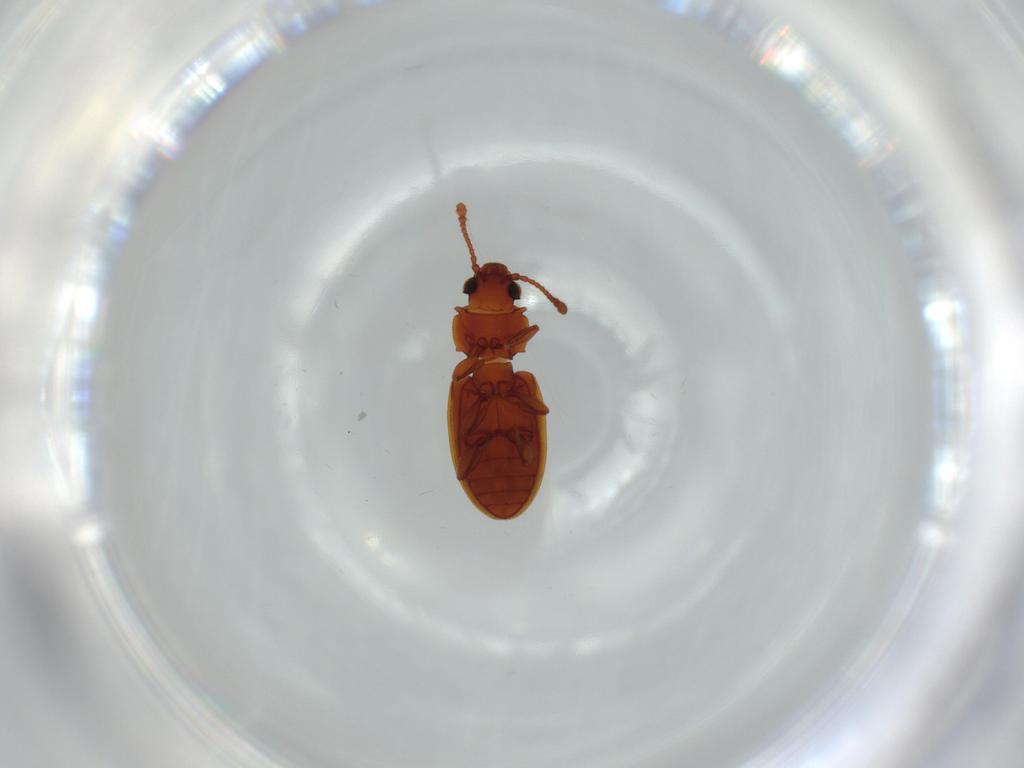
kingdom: Animalia
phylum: Arthropoda
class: Insecta
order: Coleoptera
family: Silvanidae
